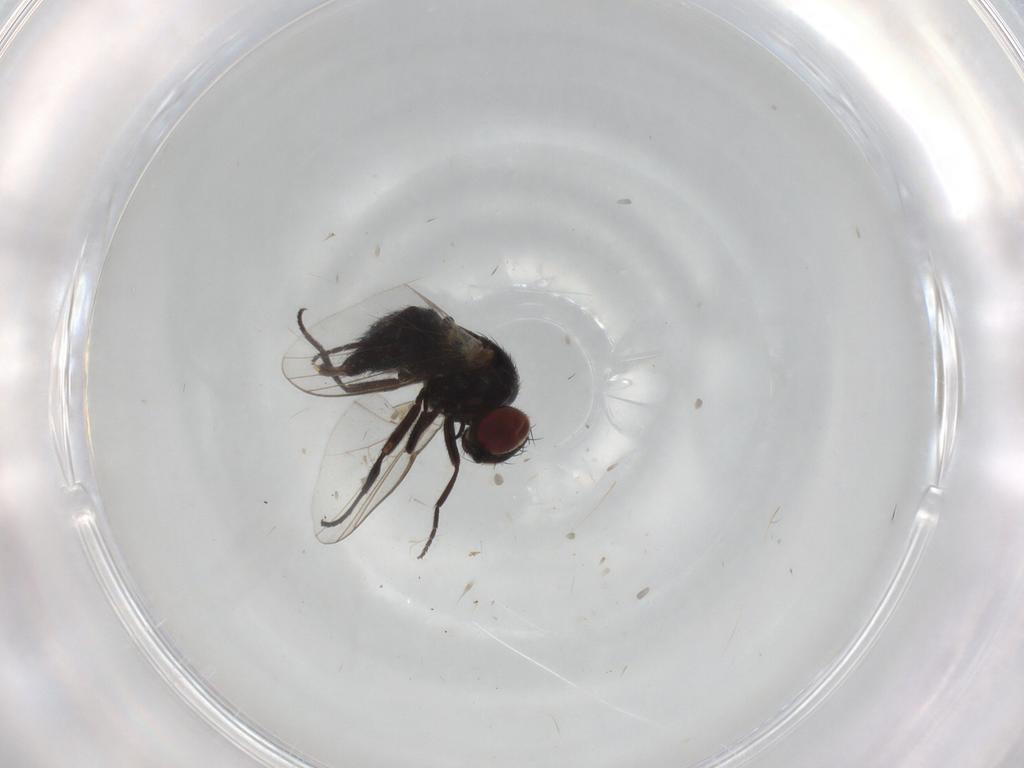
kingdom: Animalia
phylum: Arthropoda
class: Insecta
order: Diptera
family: Agromyzidae
